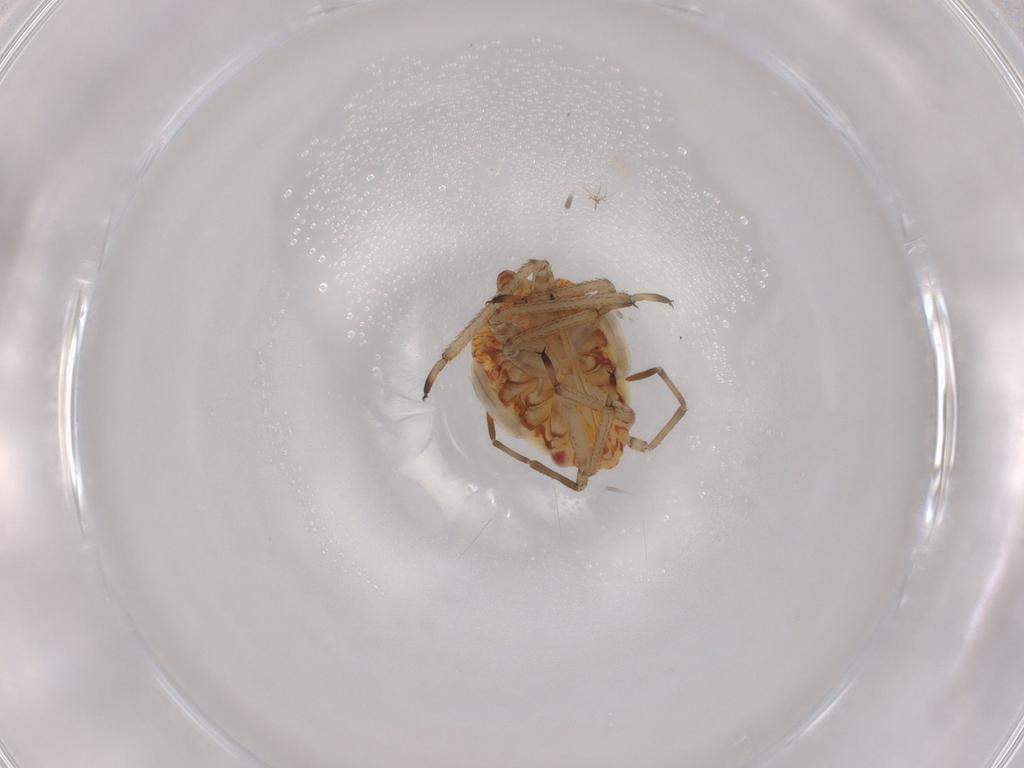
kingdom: Animalia
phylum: Arthropoda
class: Insecta
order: Hemiptera
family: Miridae
